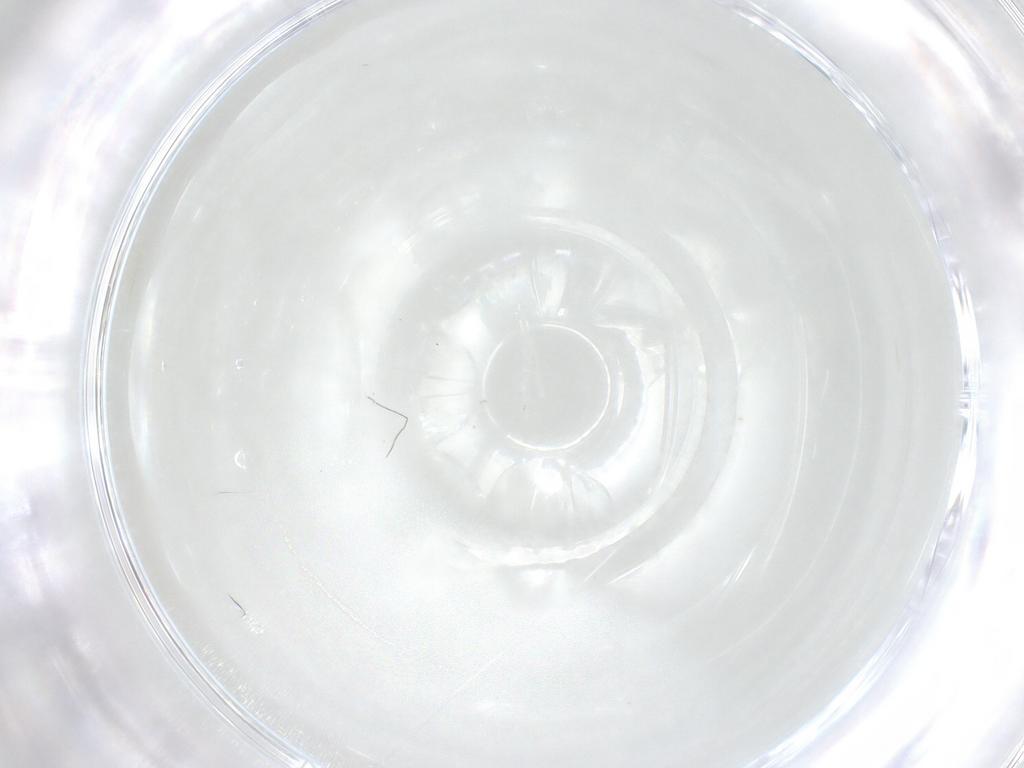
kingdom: Animalia
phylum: Arthropoda
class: Insecta
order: Diptera
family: Cecidomyiidae
